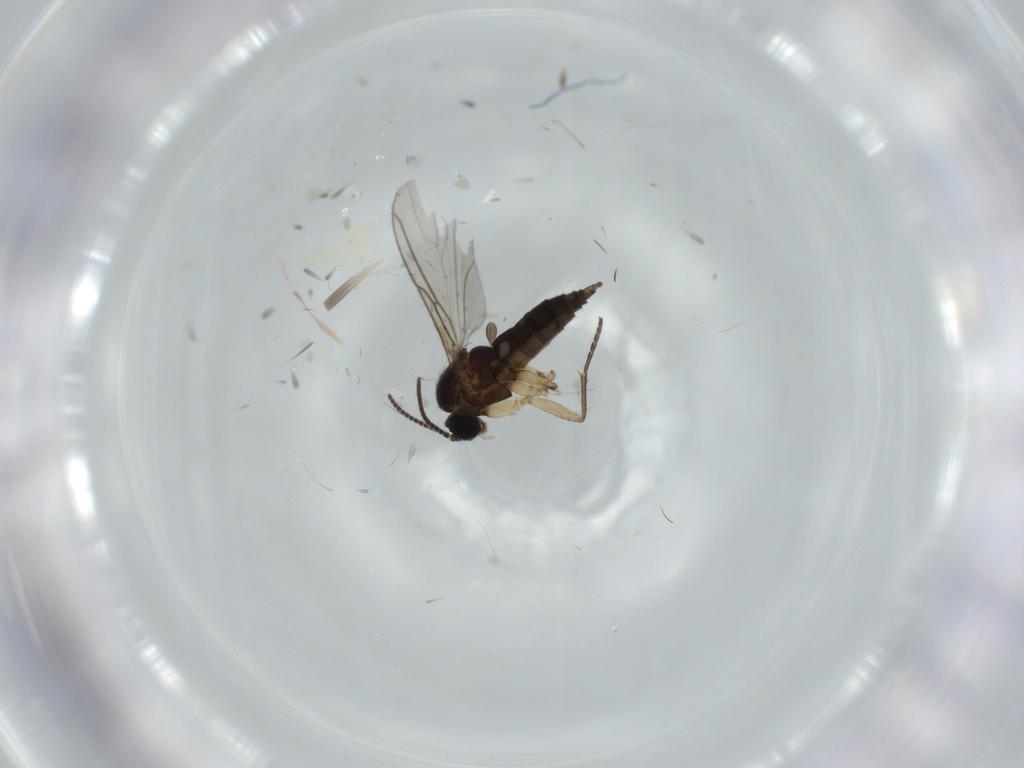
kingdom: Animalia
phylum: Arthropoda
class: Insecta
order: Diptera
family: Sciaridae
